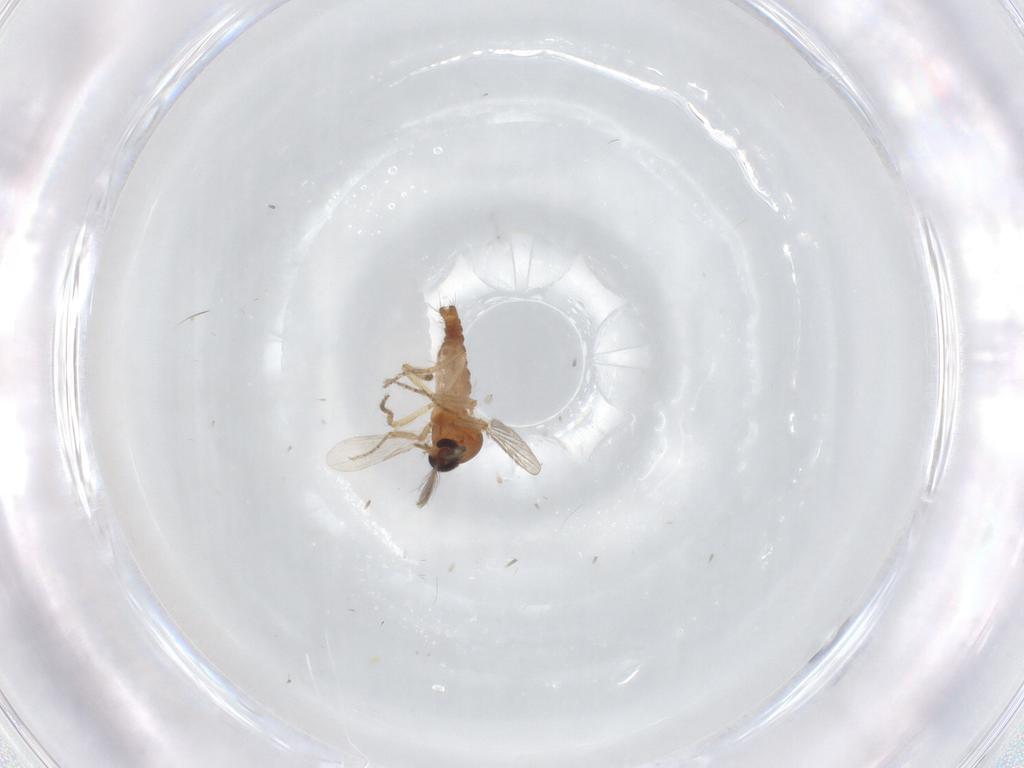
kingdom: Animalia
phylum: Arthropoda
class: Insecta
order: Diptera
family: Ceratopogonidae
